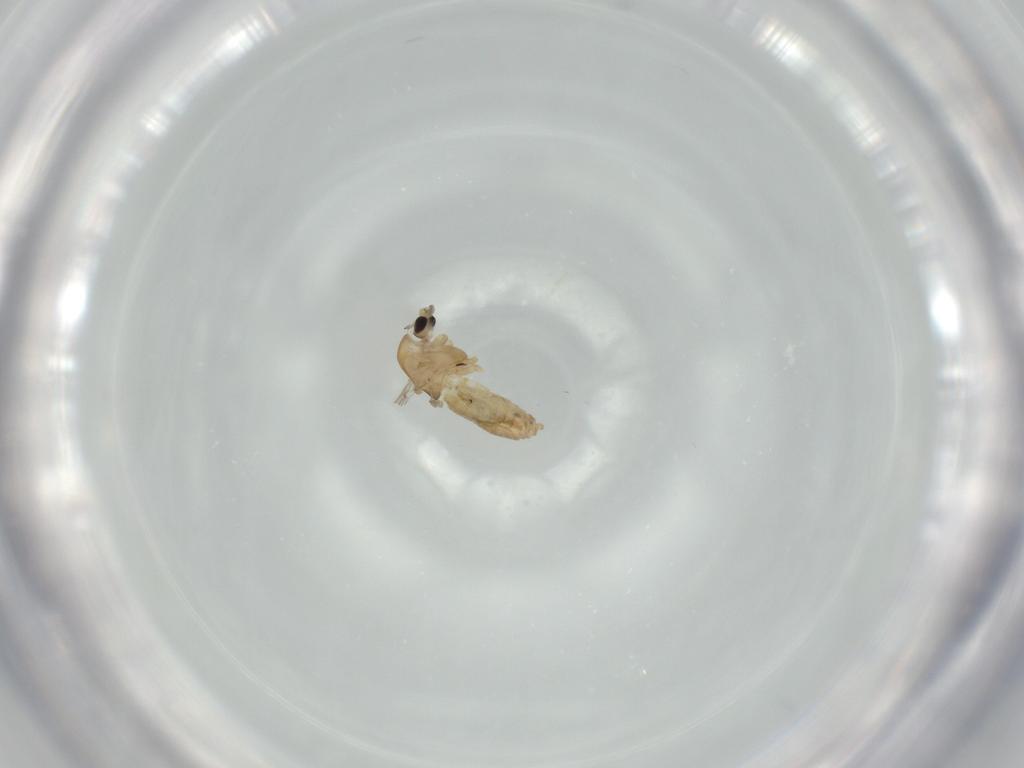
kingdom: Animalia
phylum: Arthropoda
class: Insecta
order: Diptera
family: Chironomidae
